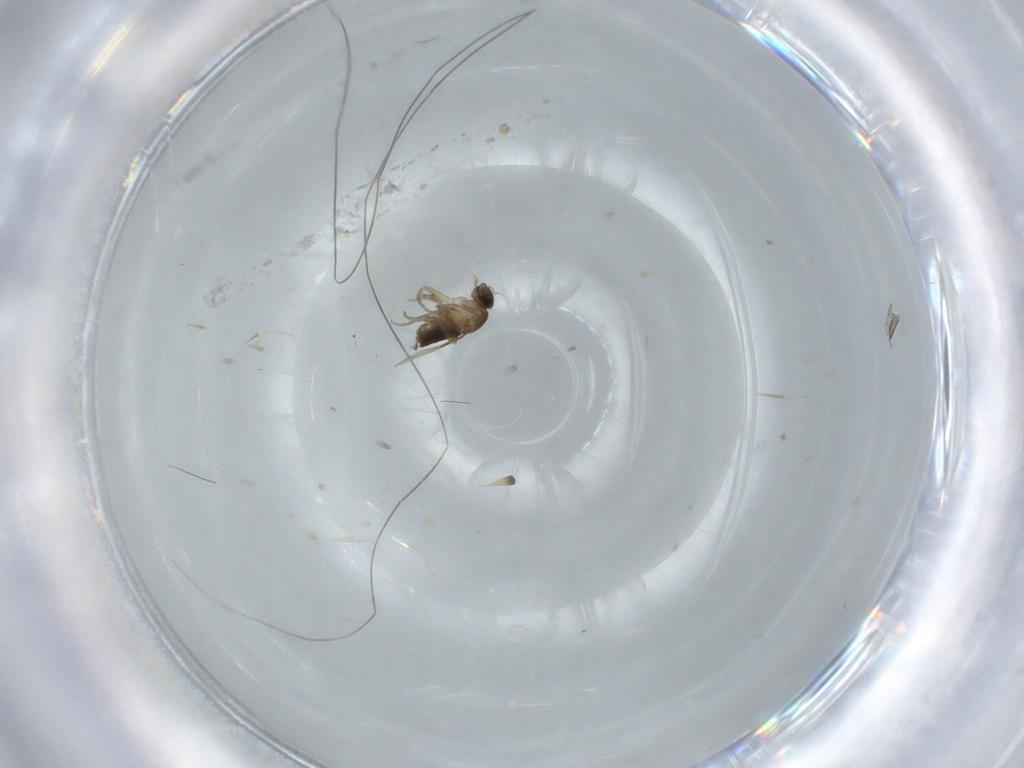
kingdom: Animalia
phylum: Arthropoda
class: Insecta
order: Diptera
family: Phoridae
